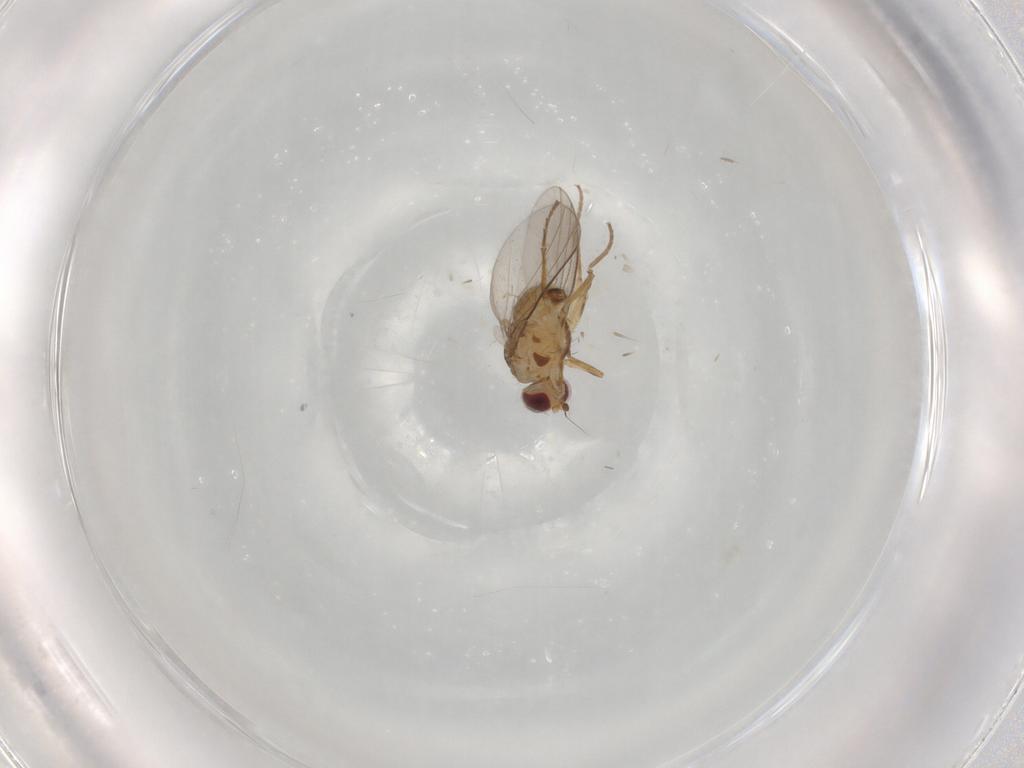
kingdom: Animalia
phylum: Arthropoda
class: Insecta
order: Diptera
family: Agromyzidae
